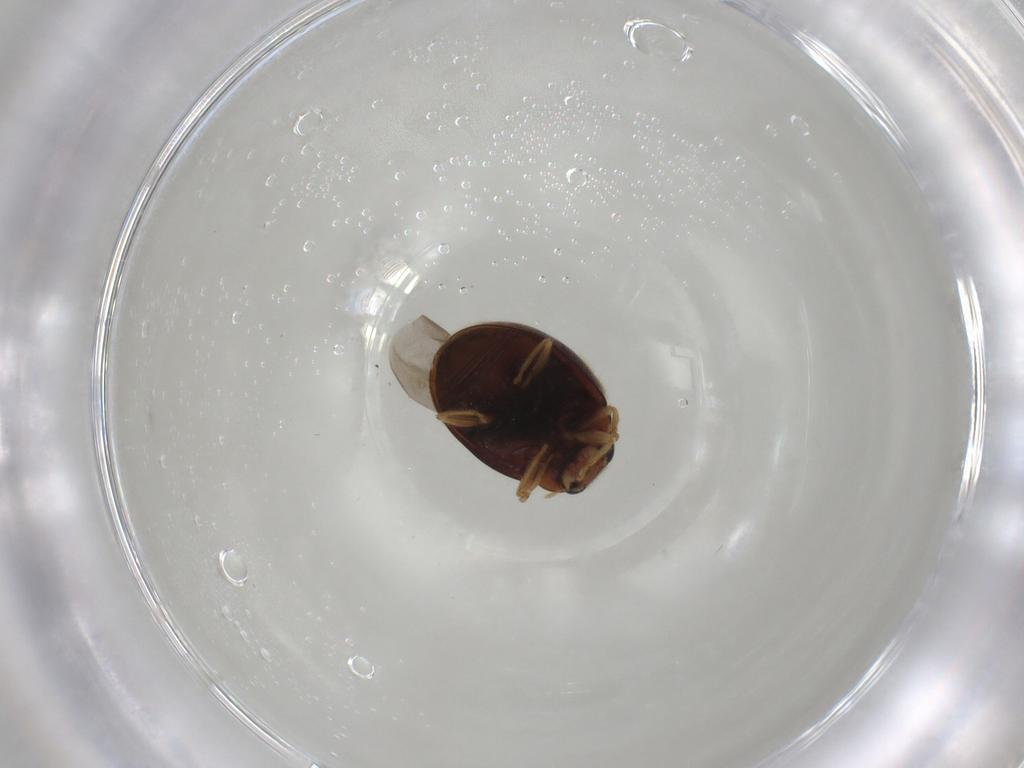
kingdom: Animalia
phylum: Arthropoda
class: Insecta
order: Coleoptera
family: Coccinellidae
